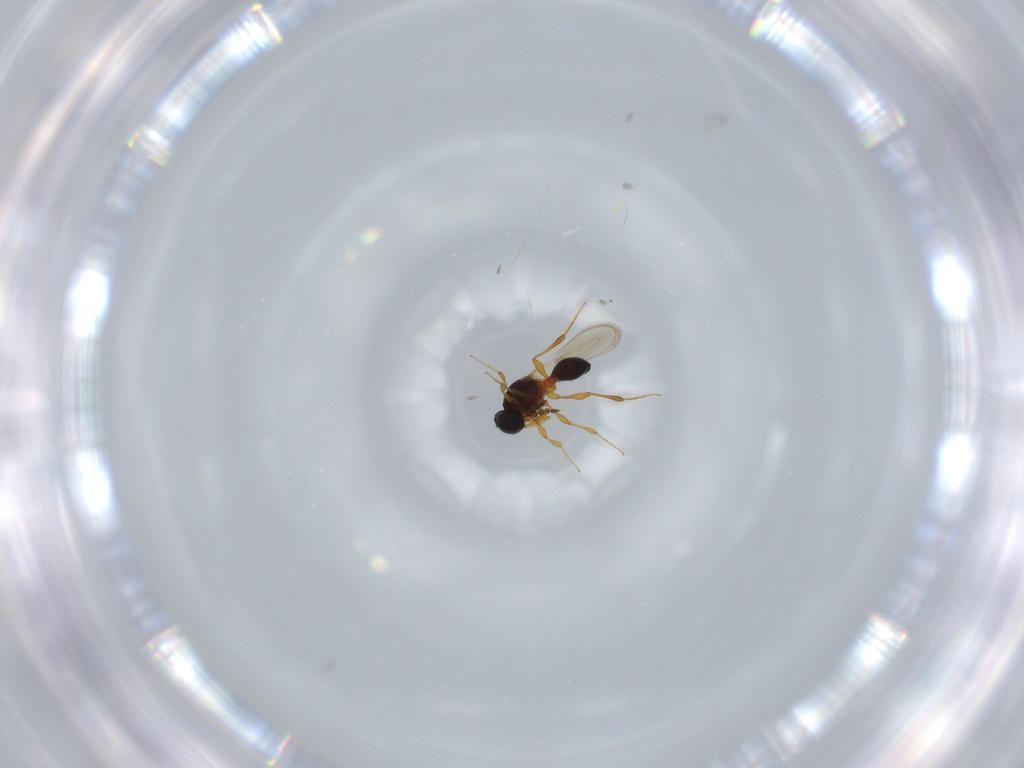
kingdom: Animalia
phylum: Arthropoda
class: Insecta
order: Hymenoptera
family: Platygastridae
